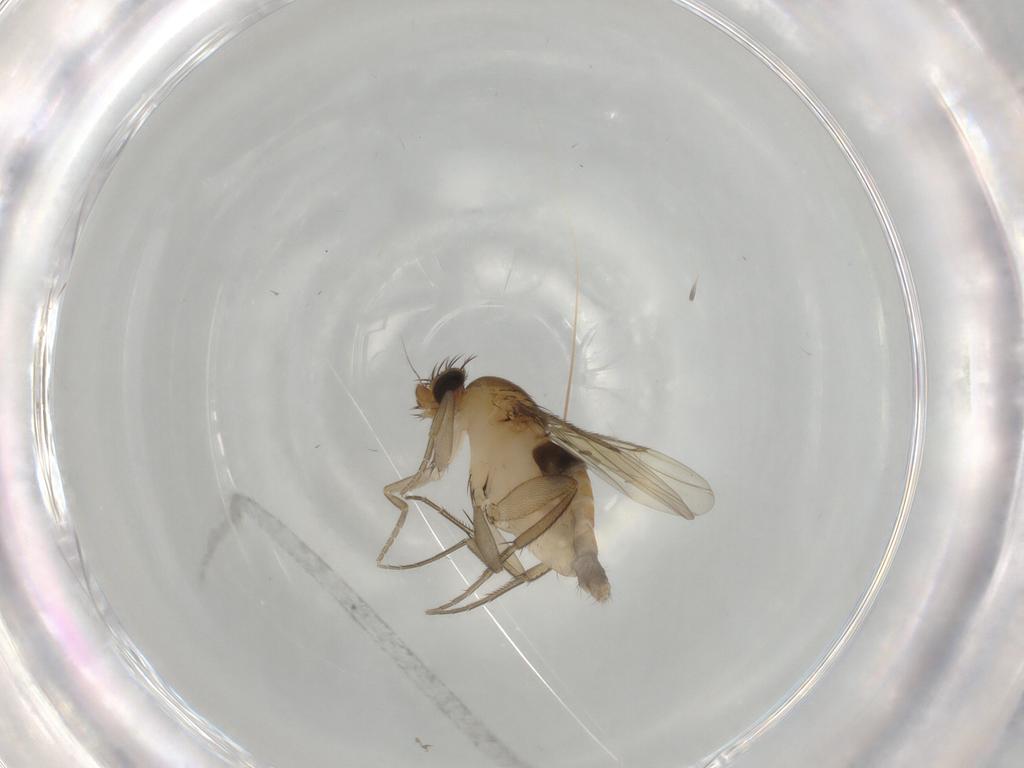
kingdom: Animalia
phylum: Arthropoda
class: Insecta
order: Diptera
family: Phoridae
